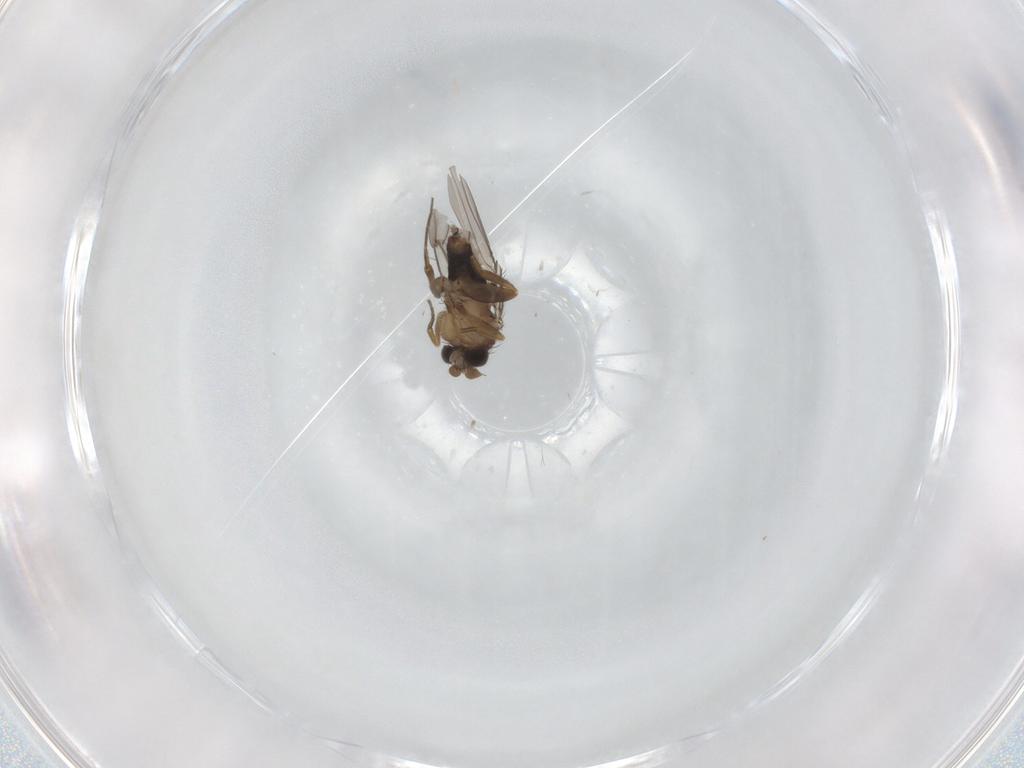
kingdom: Animalia
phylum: Arthropoda
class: Insecta
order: Diptera
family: Phoridae
